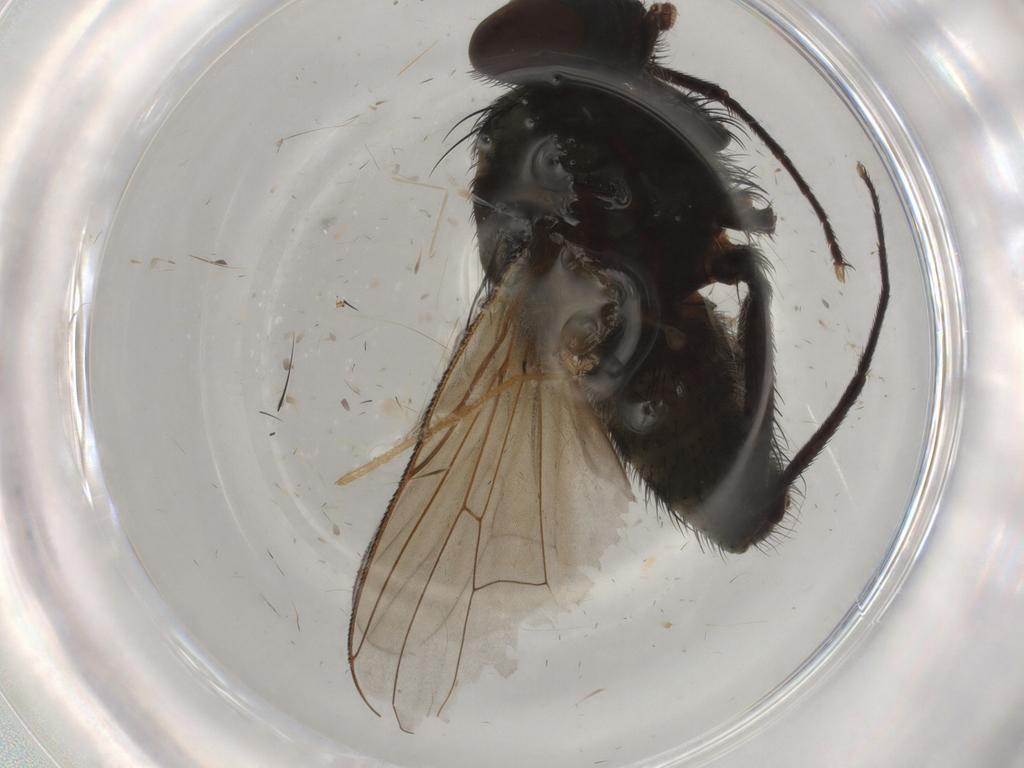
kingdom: Animalia
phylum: Arthropoda
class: Insecta
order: Diptera
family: Muscidae
